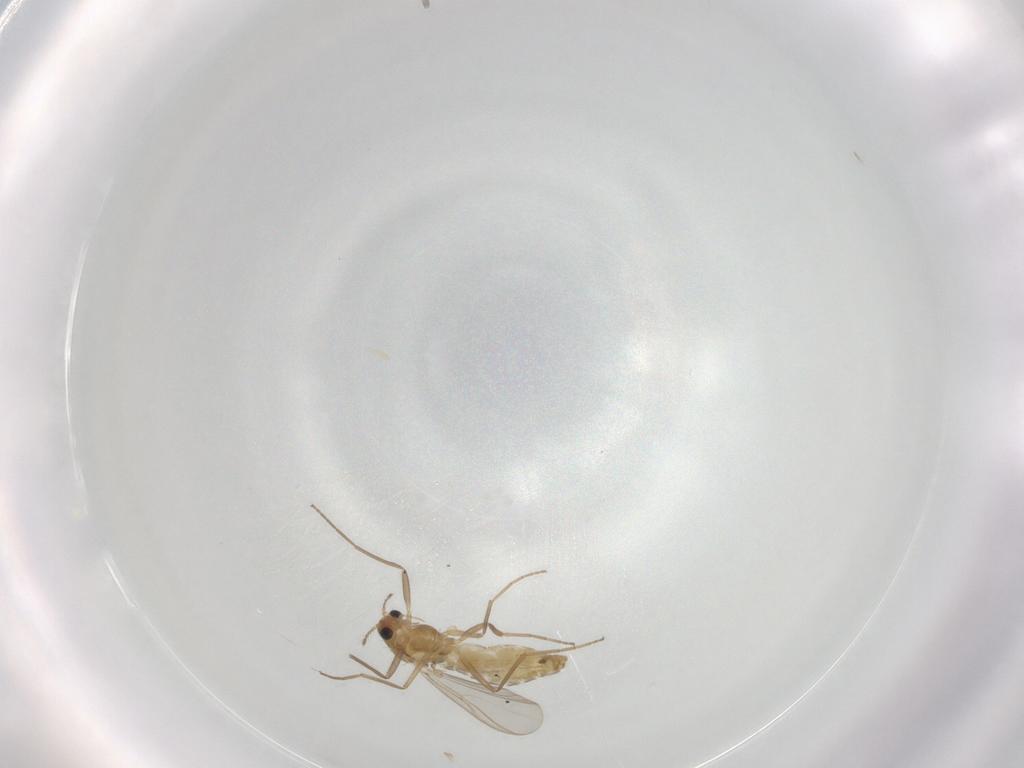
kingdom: Animalia
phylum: Arthropoda
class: Insecta
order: Diptera
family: Chironomidae
